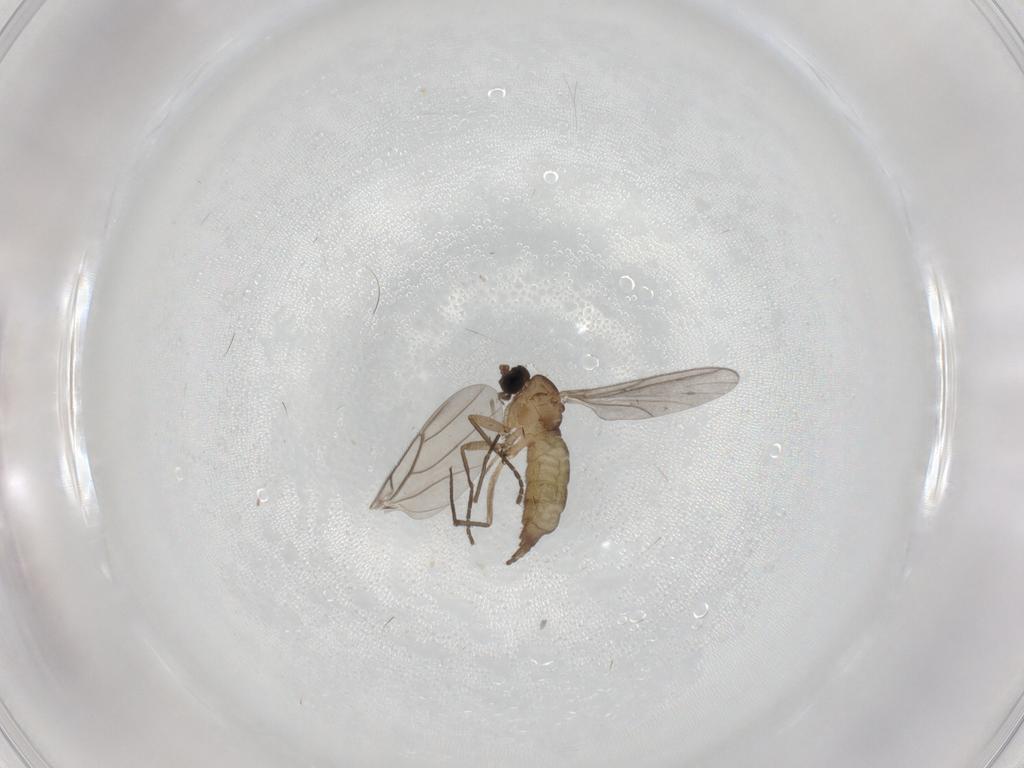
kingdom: Animalia
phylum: Arthropoda
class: Insecta
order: Diptera
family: Sciaridae
